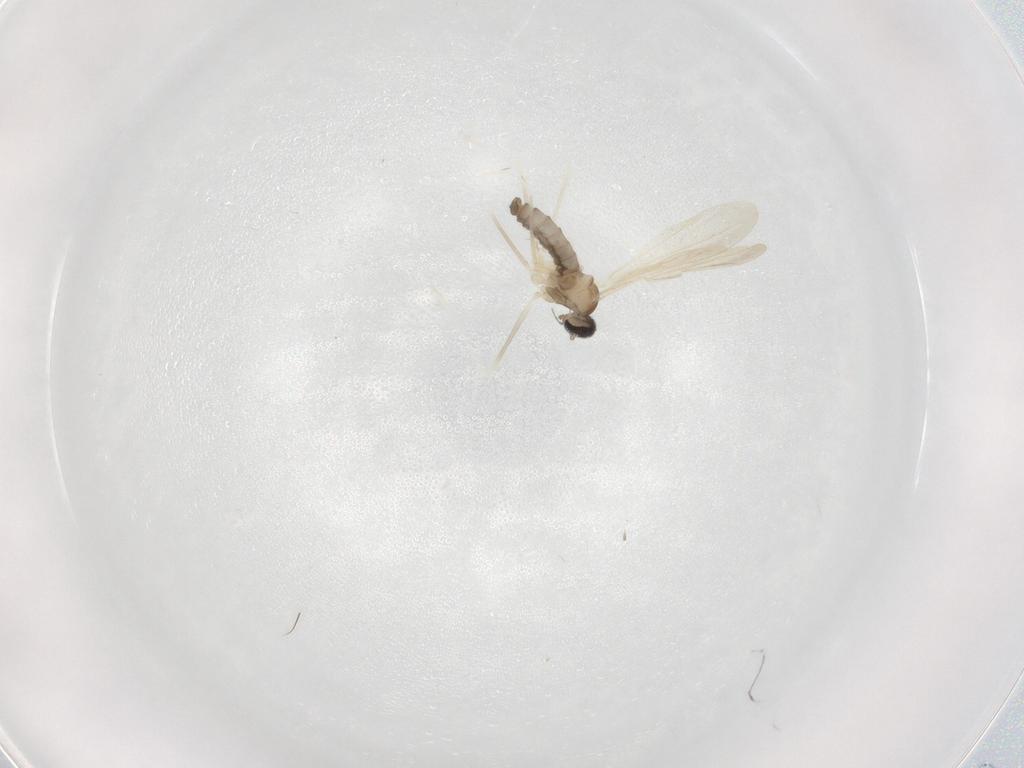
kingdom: Animalia
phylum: Arthropoda
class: Insecta
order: Diptera
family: Cecidomyiidae
